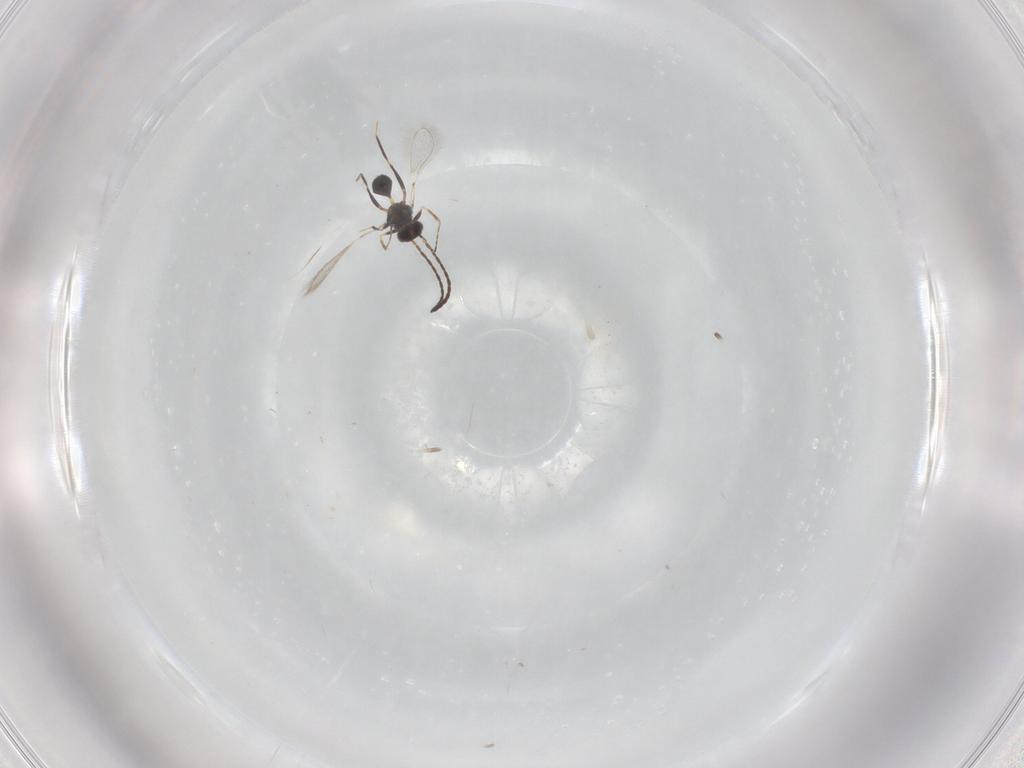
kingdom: Animalia
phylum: Arthropoda
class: Insecta
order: Hymenoptera
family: Mymaridae
